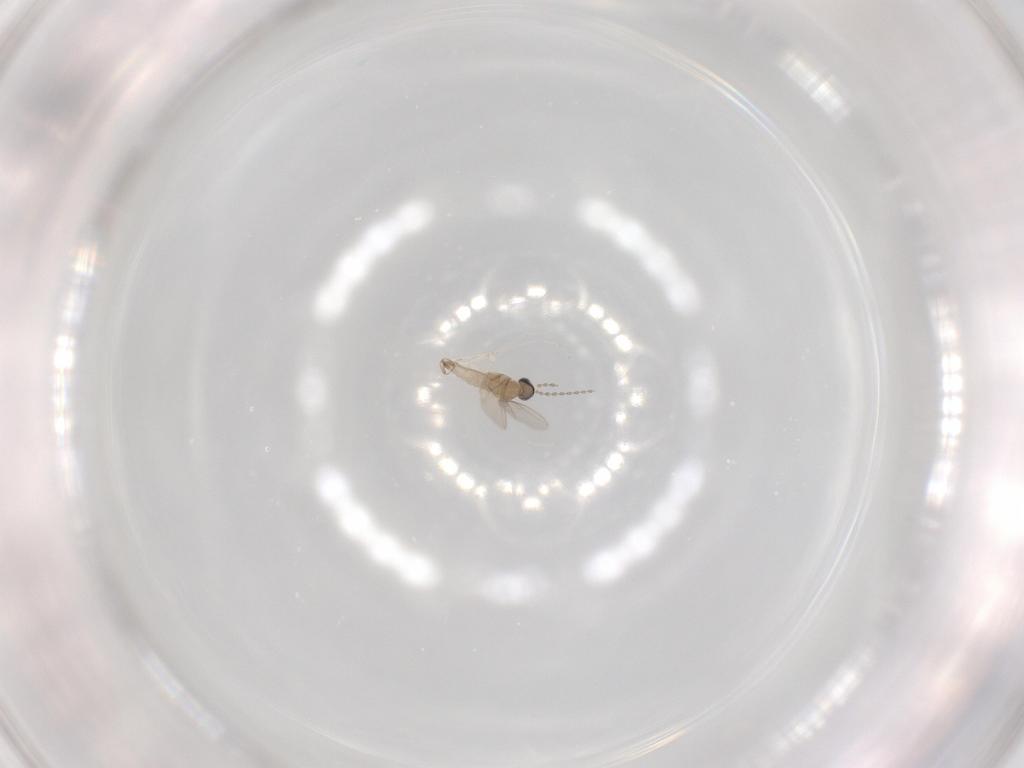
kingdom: Animalia
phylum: Arthropoda
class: Insecta
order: Diptera
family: Cecidomyiidae
